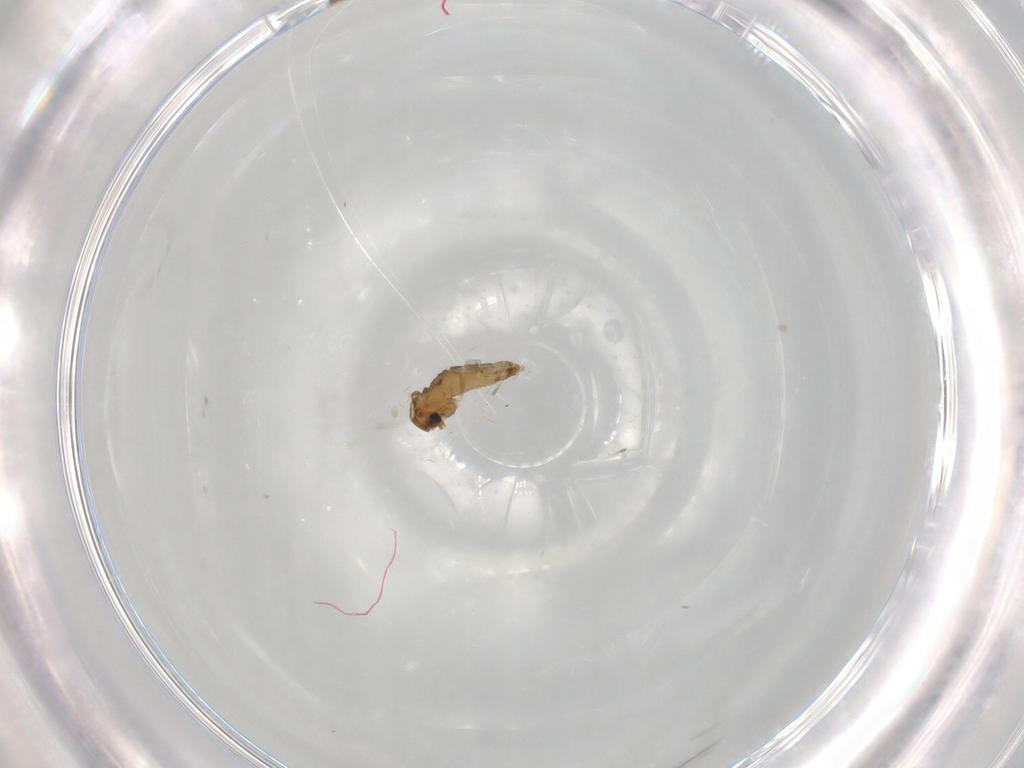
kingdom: Animalia
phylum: Arthropoda
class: Insecta
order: Diptera
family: Chironomidae
